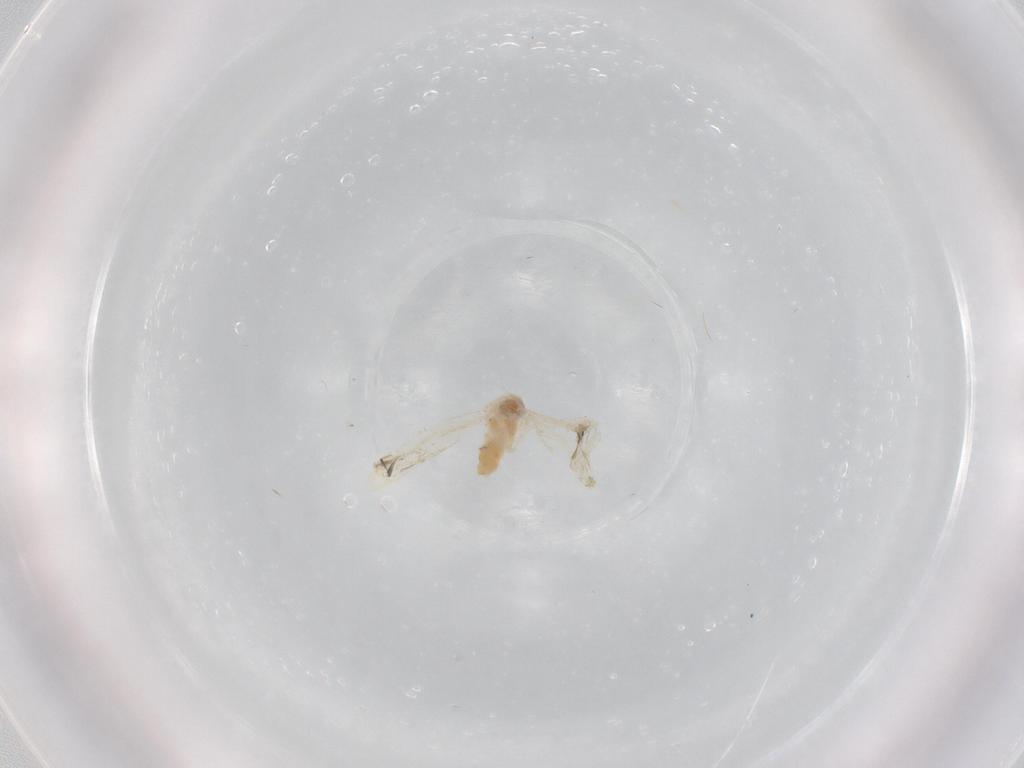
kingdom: Animalia
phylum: Arthropoda
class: Insecta
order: Hemiptera
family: Aleyrodidae
